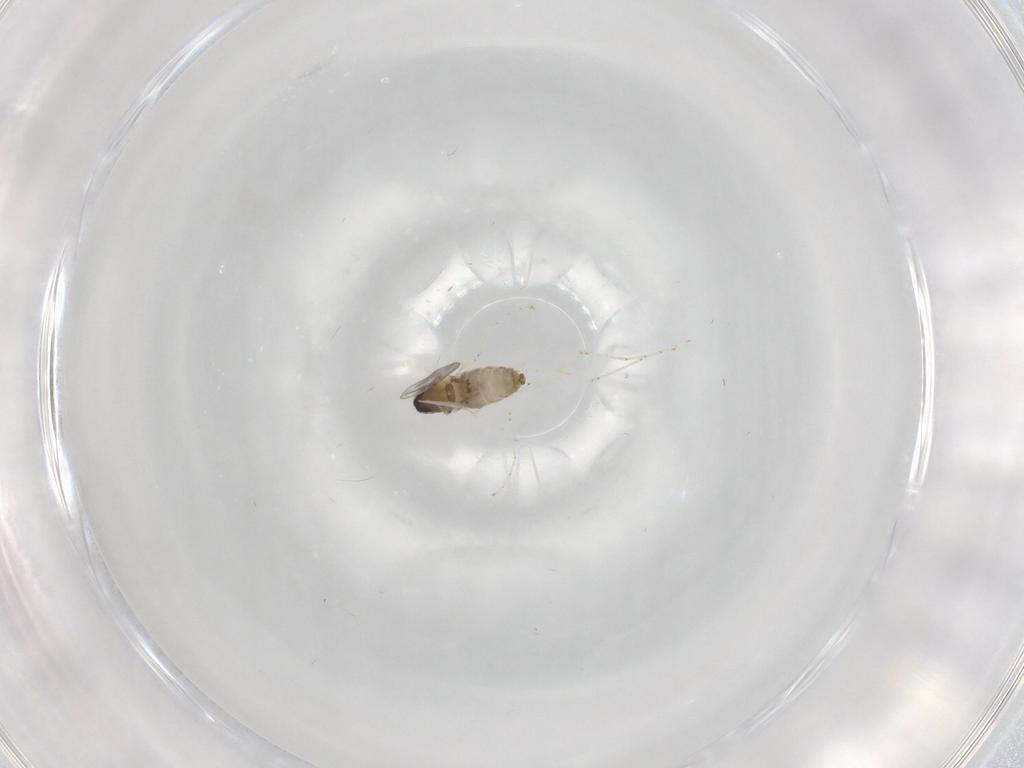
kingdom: Animalia
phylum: Arthropoda
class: Insecta
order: Diptera
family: Cecidomyiidae
